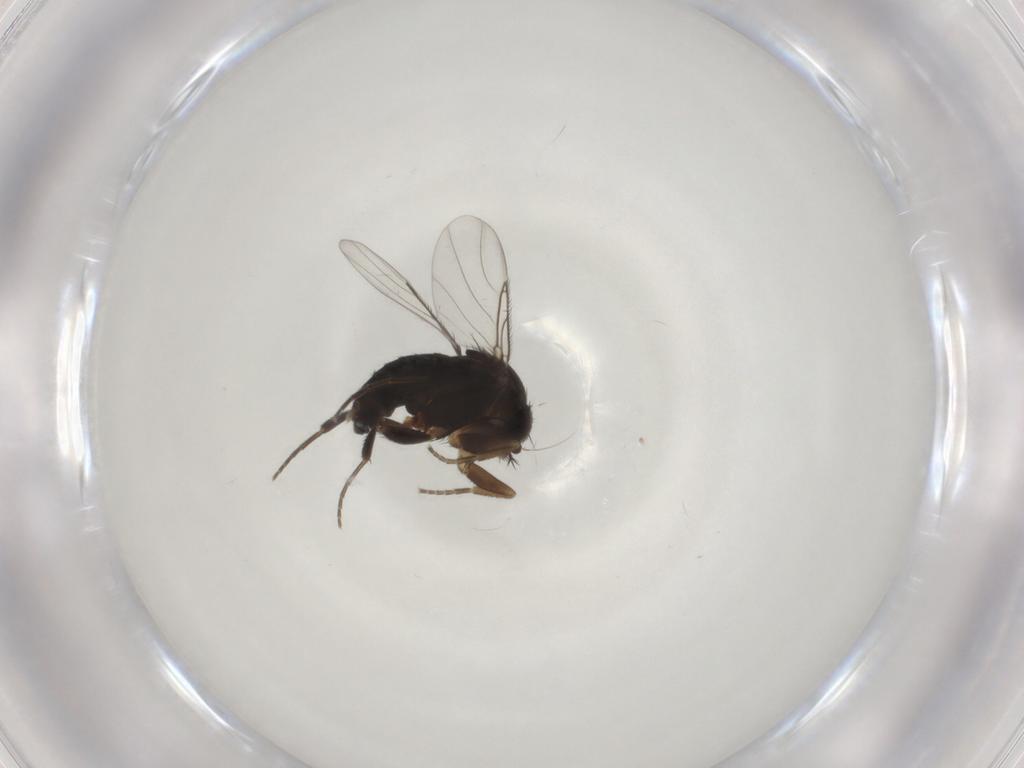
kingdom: Animalia
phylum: Arthropoda
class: Insecta
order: Diptera
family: Phoridae
